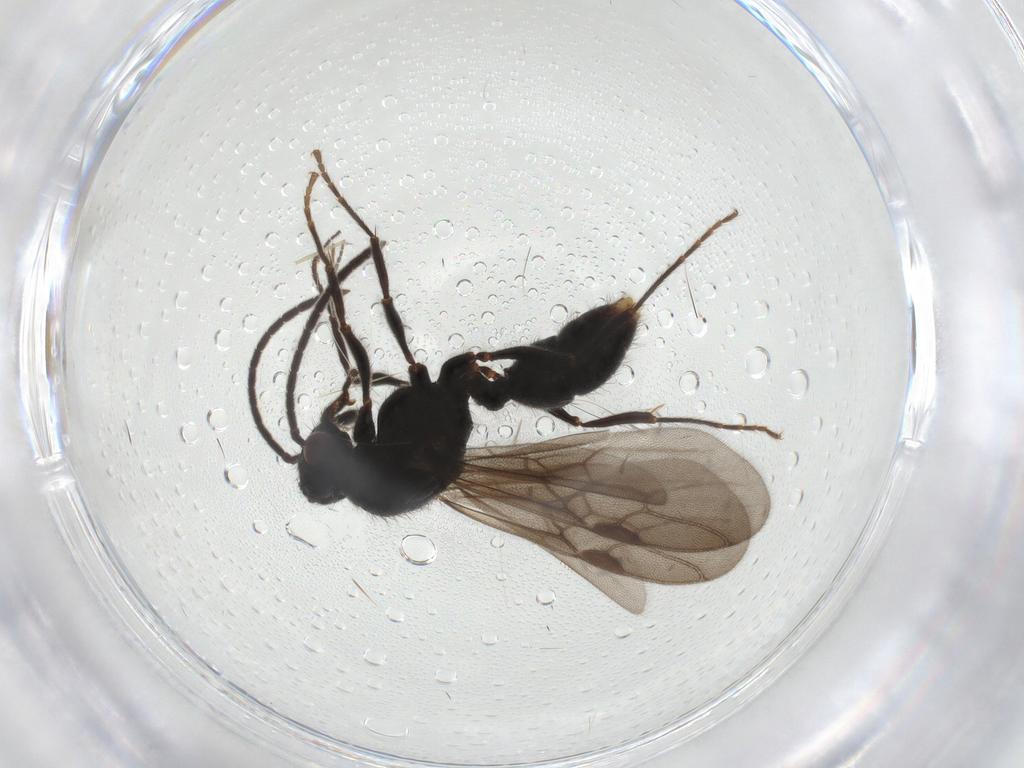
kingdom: Animalia
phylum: Arthropoda
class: Insecta
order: Hymenoptera
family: Formicidae
